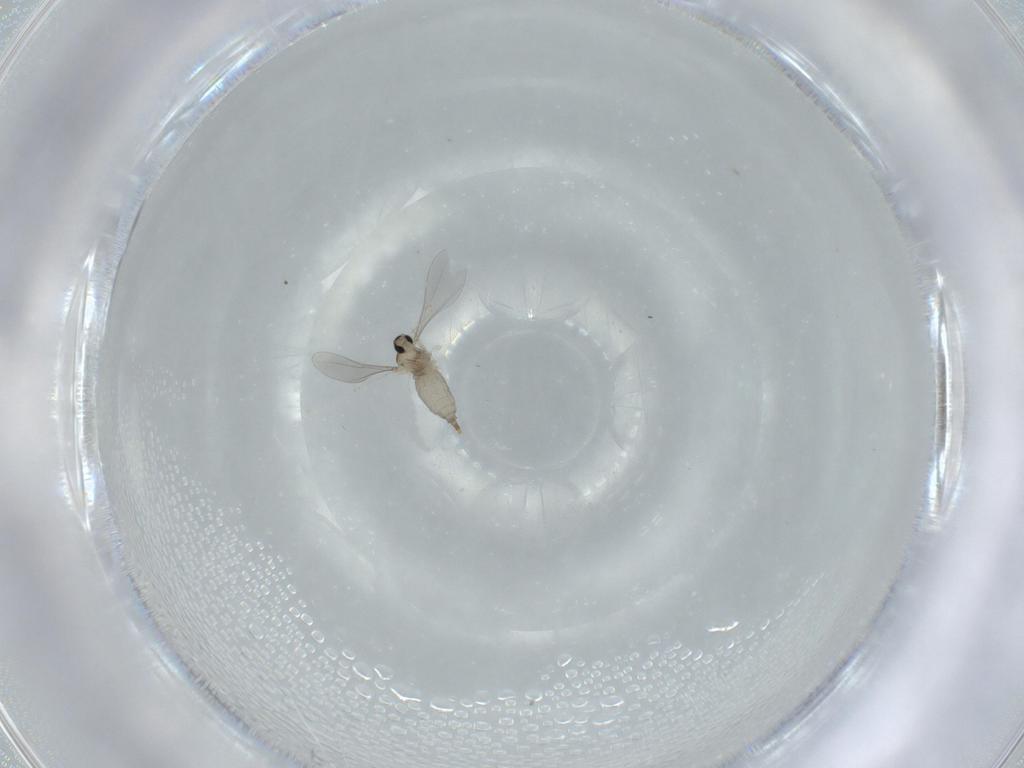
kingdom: Animalia
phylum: Arthropoda
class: Insecta
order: Diptera
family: Cecidomyiidae
